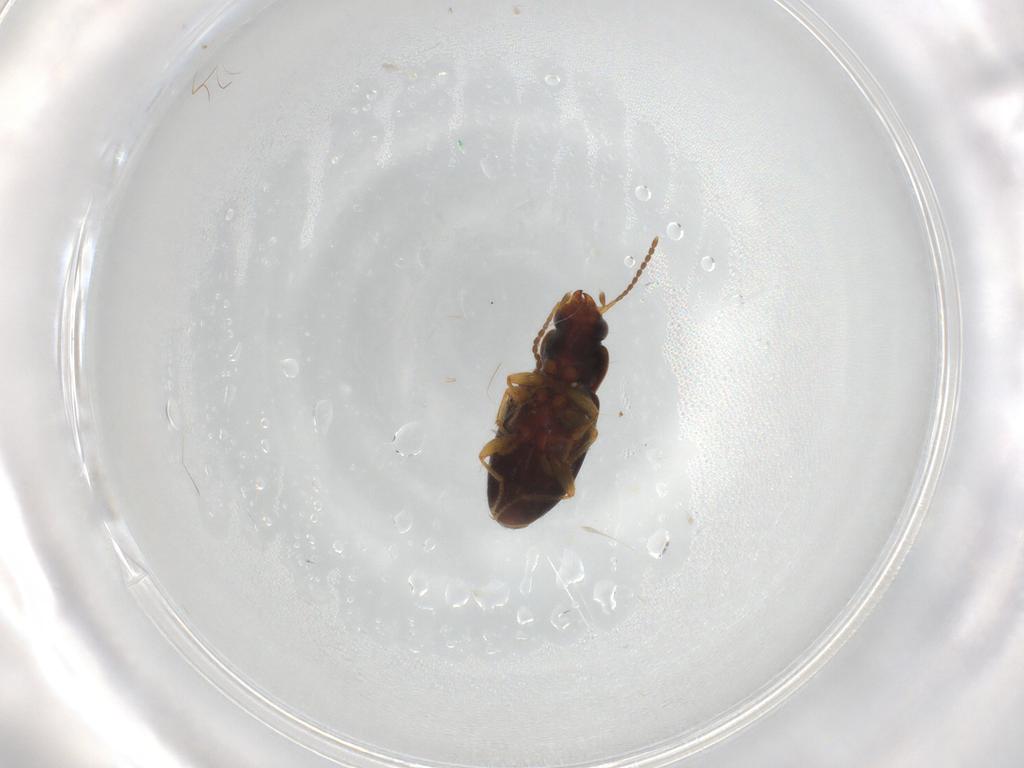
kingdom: Animalia
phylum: Arthropoda
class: Insecta
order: Coleoptera
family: Carabidae
